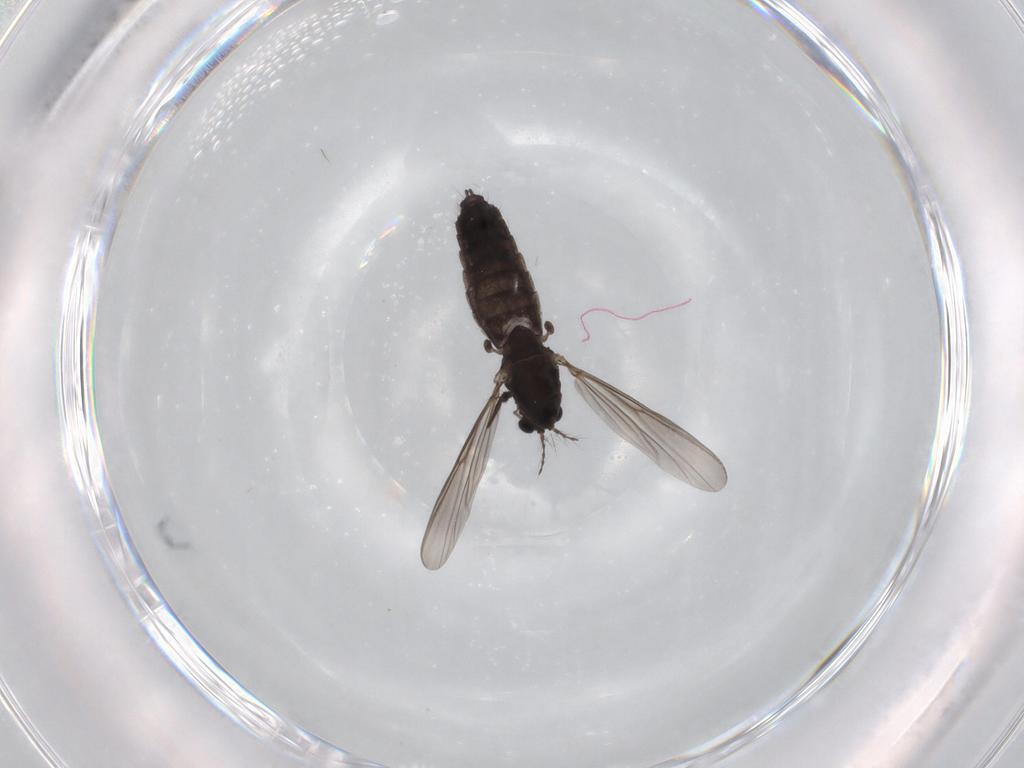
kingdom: Animalia
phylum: Arthropoda
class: Insecta
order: Diptera
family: Chironomidae
